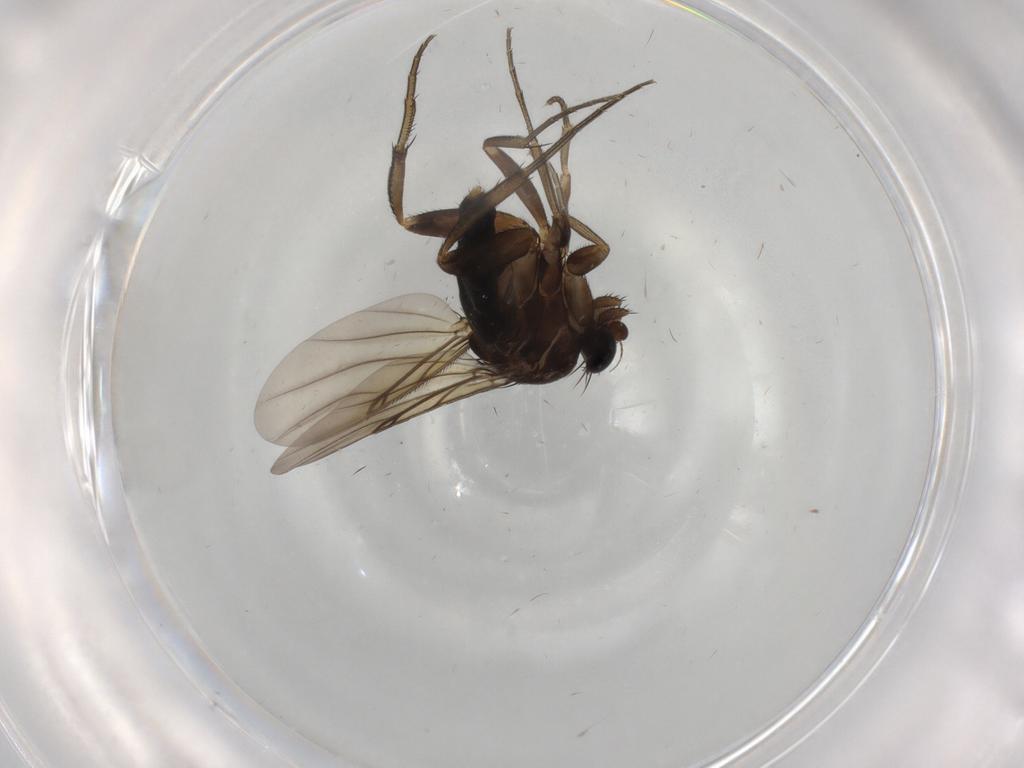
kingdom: Animalia
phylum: Arthropoda
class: Insecta
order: Diptera
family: Phoridae
